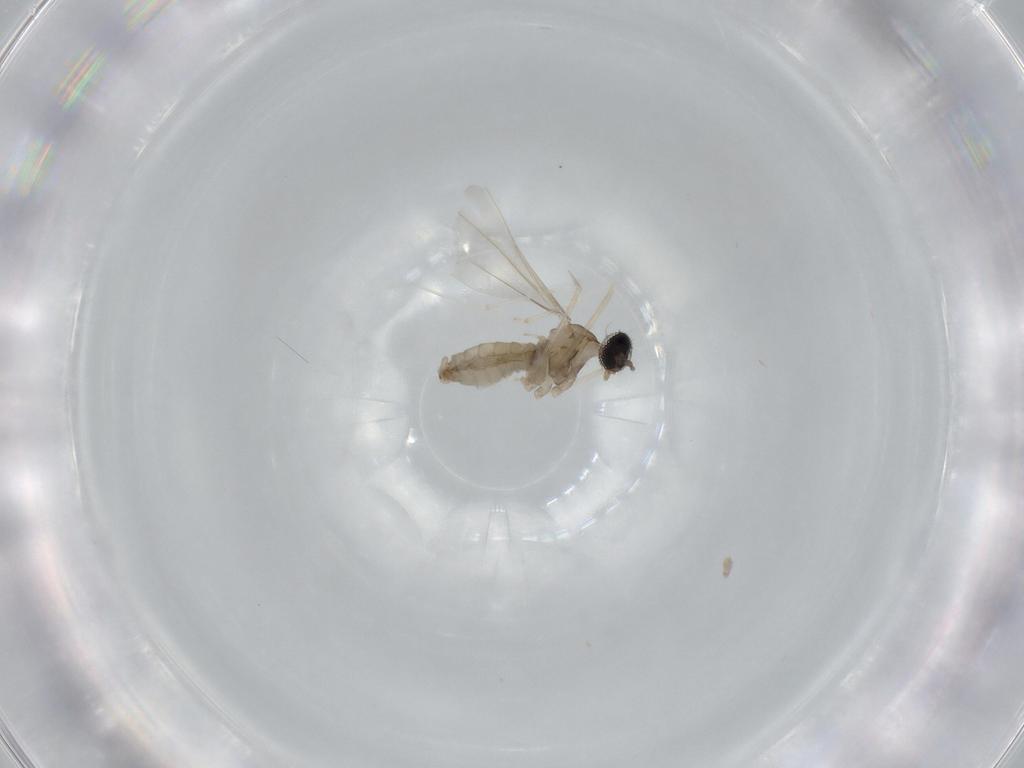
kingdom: Animalia
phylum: Arthropoda
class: Insecta
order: Diptera
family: Cecidomyiidae
